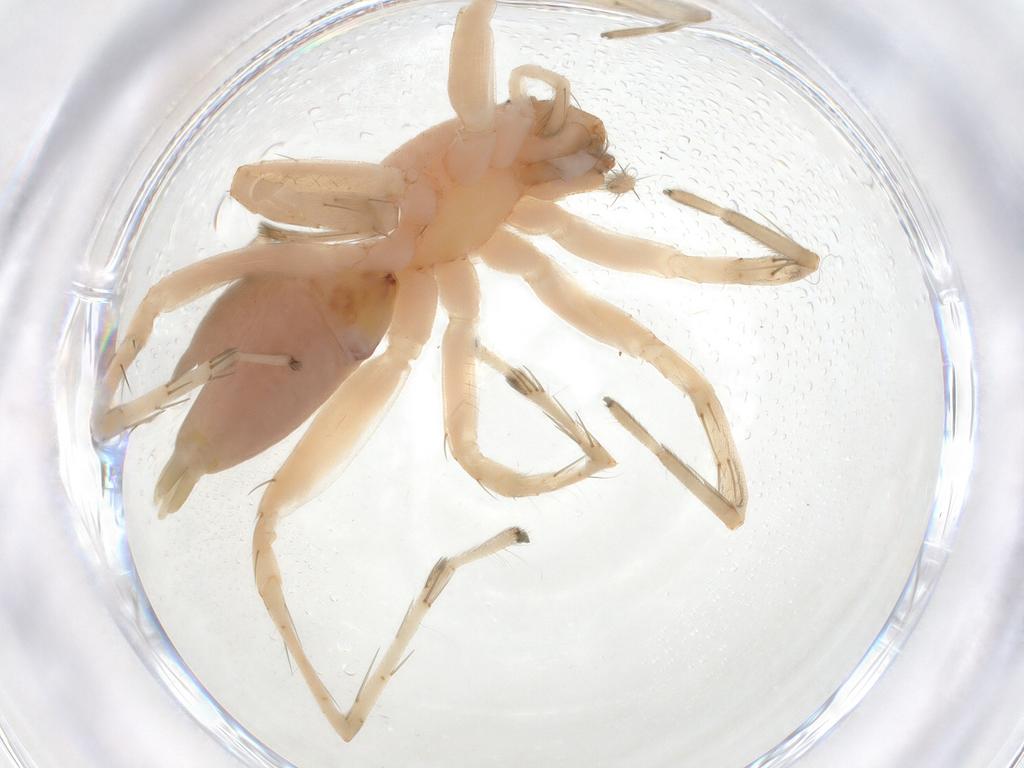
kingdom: Animalia
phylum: Arthropoda
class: Arachnida
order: Araneae
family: Clubionidae
